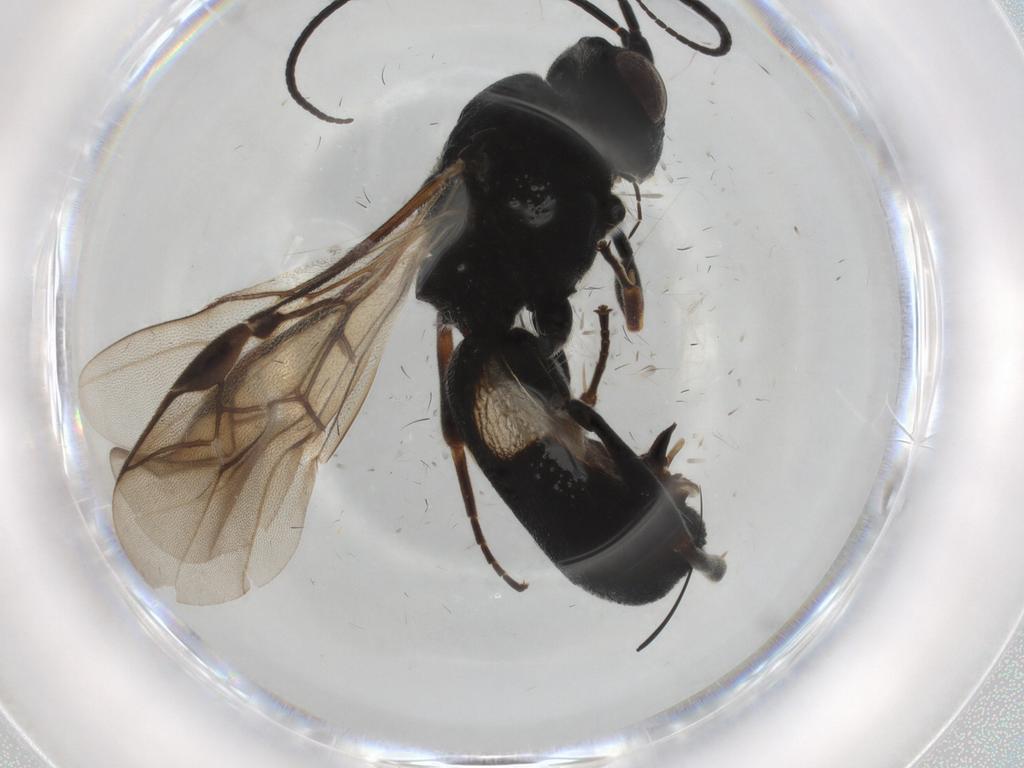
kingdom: Animalia
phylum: Arthropoda
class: Insecta
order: Hymenoptera
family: Braconidae
